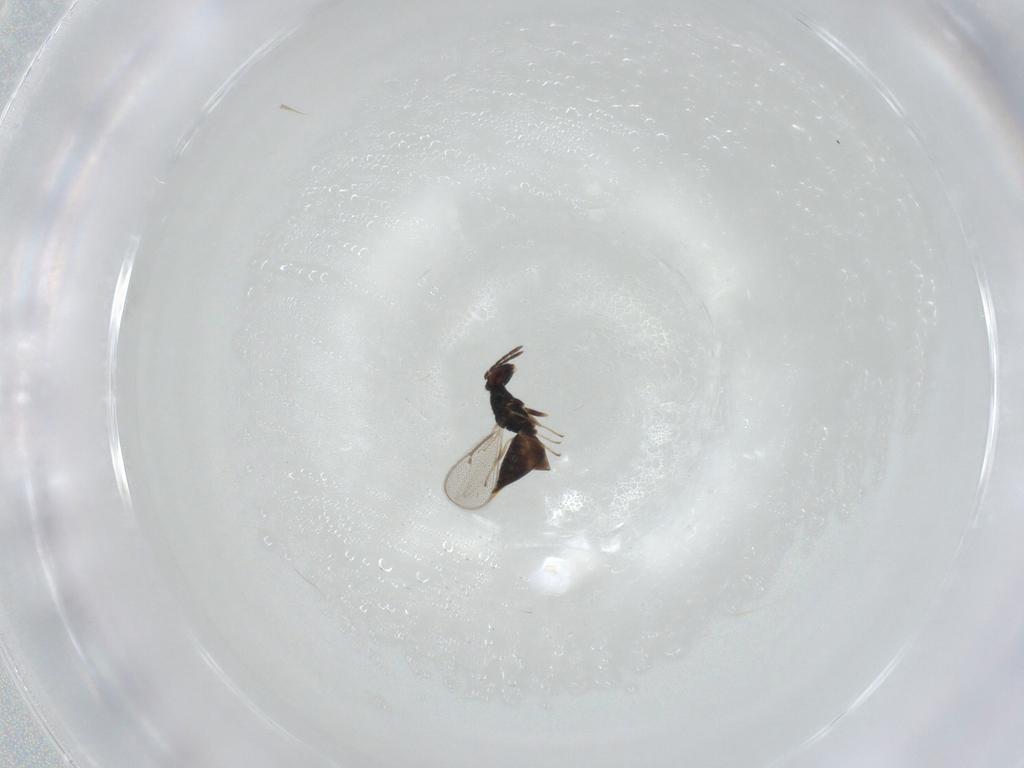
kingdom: Animalia
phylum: Arthropoda
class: Insecta
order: Hymenoptera
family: Eulophidae
